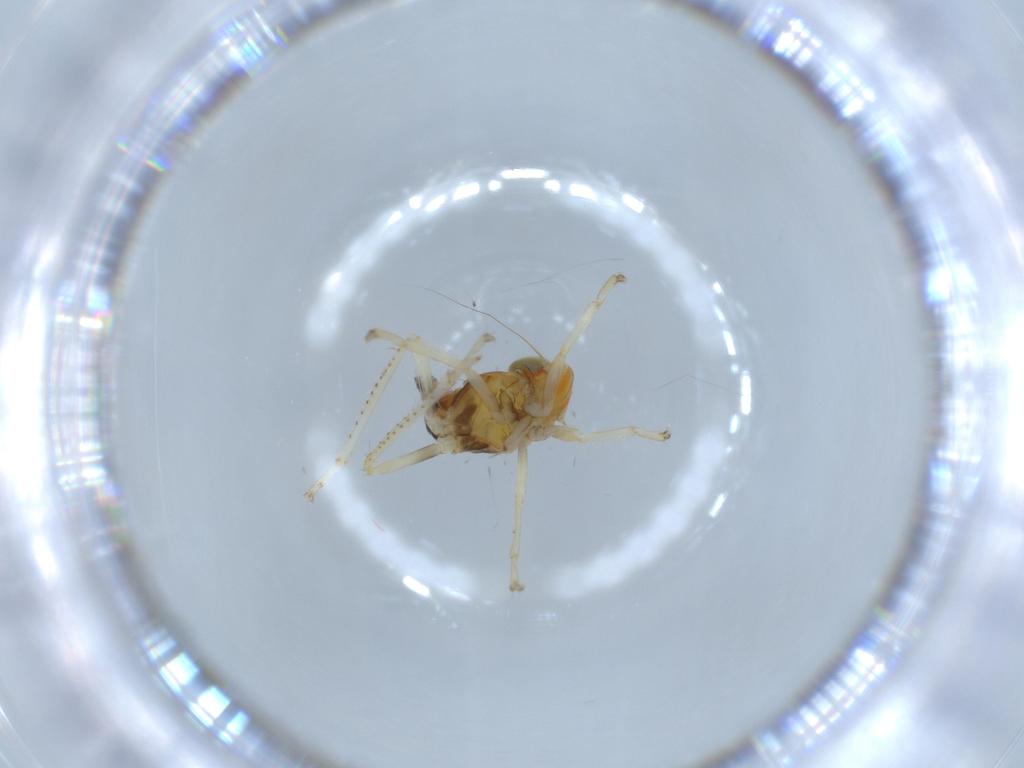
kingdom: Animalia
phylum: Arthropoda
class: Insecta
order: Hemiptera
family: Cicadellidae
